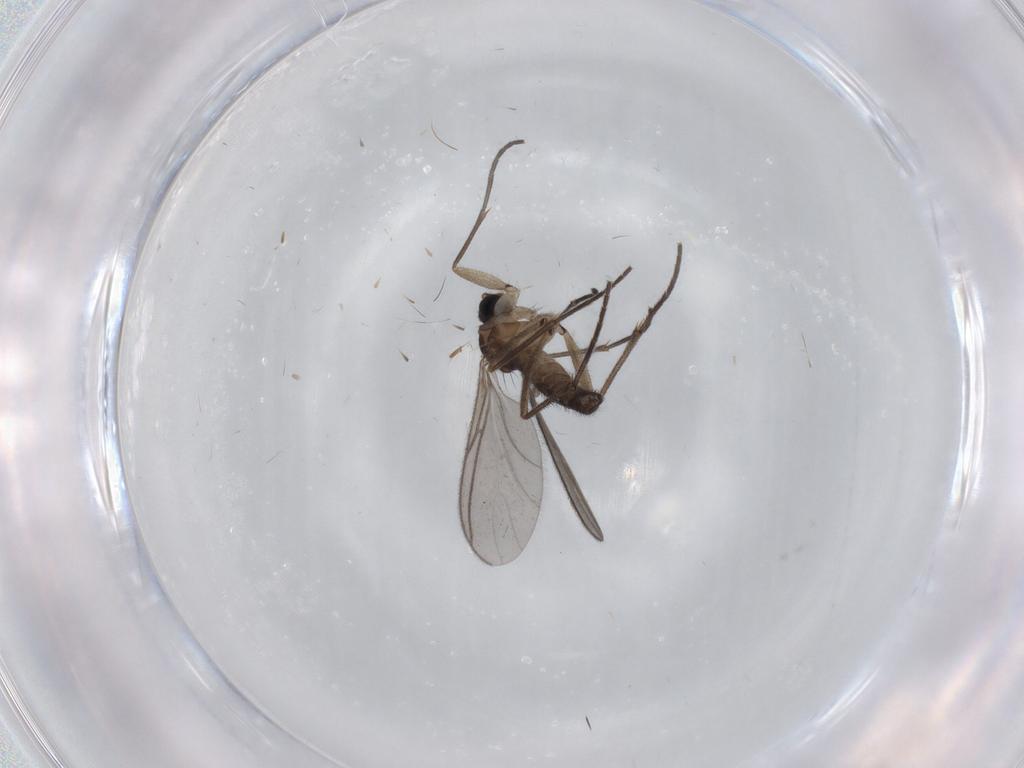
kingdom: Animalia
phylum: Arthropoda
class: Insecta
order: Diptera
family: Sciaridae
